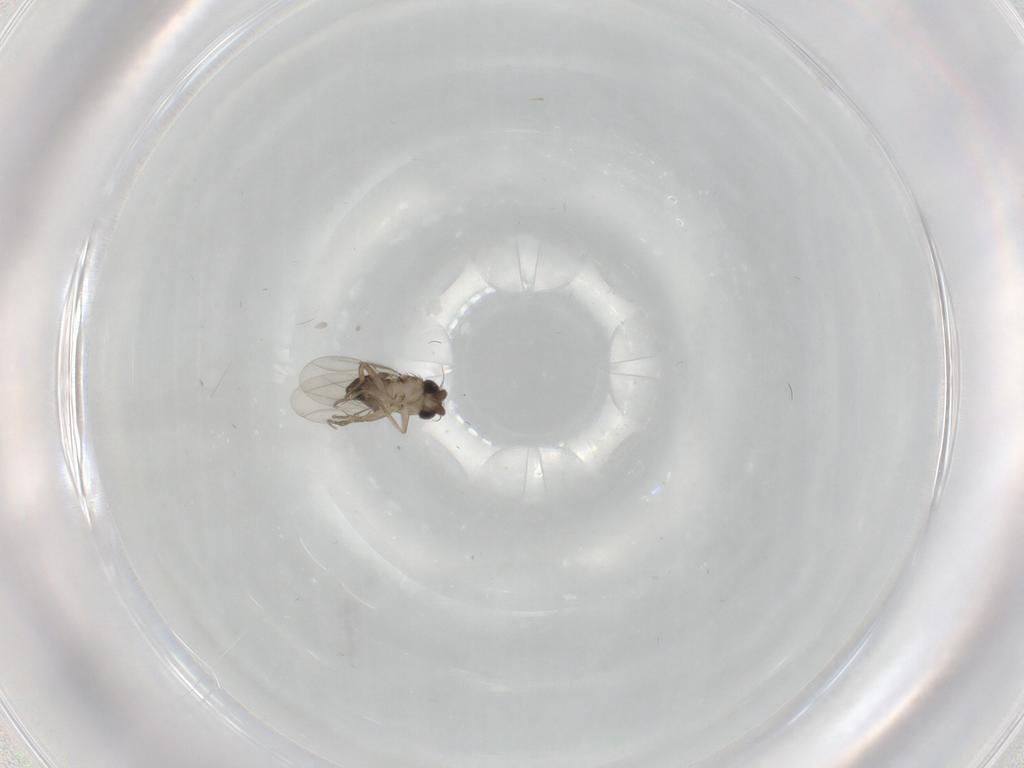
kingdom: Animalia
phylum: Arthropoda
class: Insecta
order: Diptera
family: Phoridae
